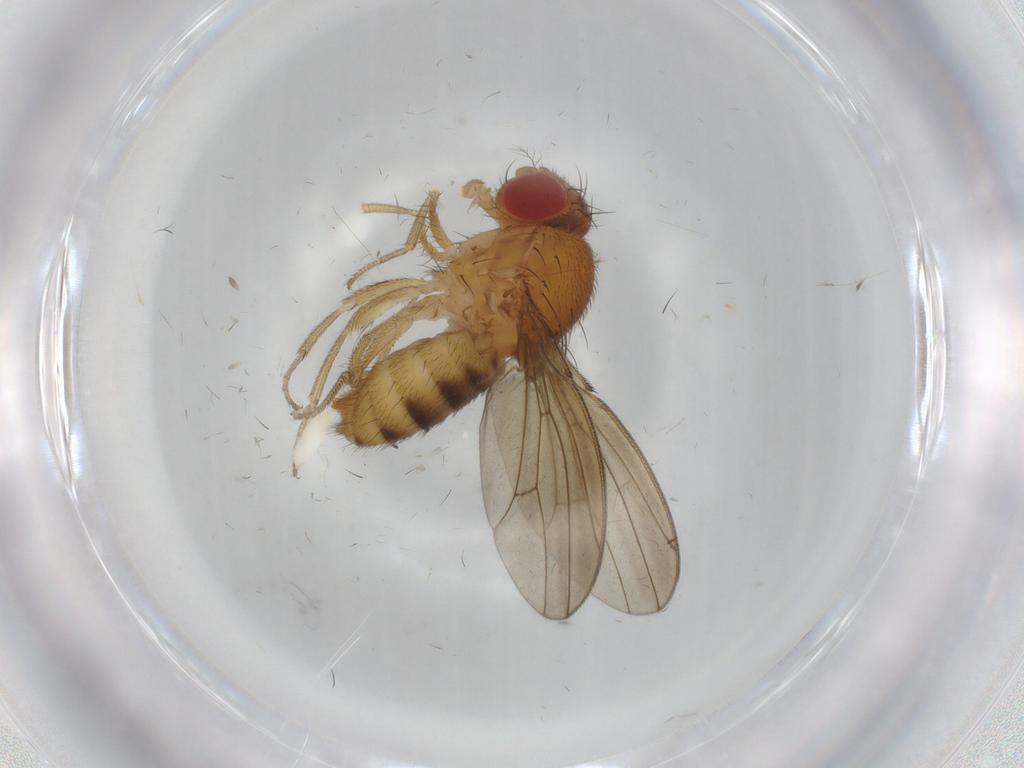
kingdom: Animalia
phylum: Arthropoda
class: Insecta
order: Diptera
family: Drosophilidae
